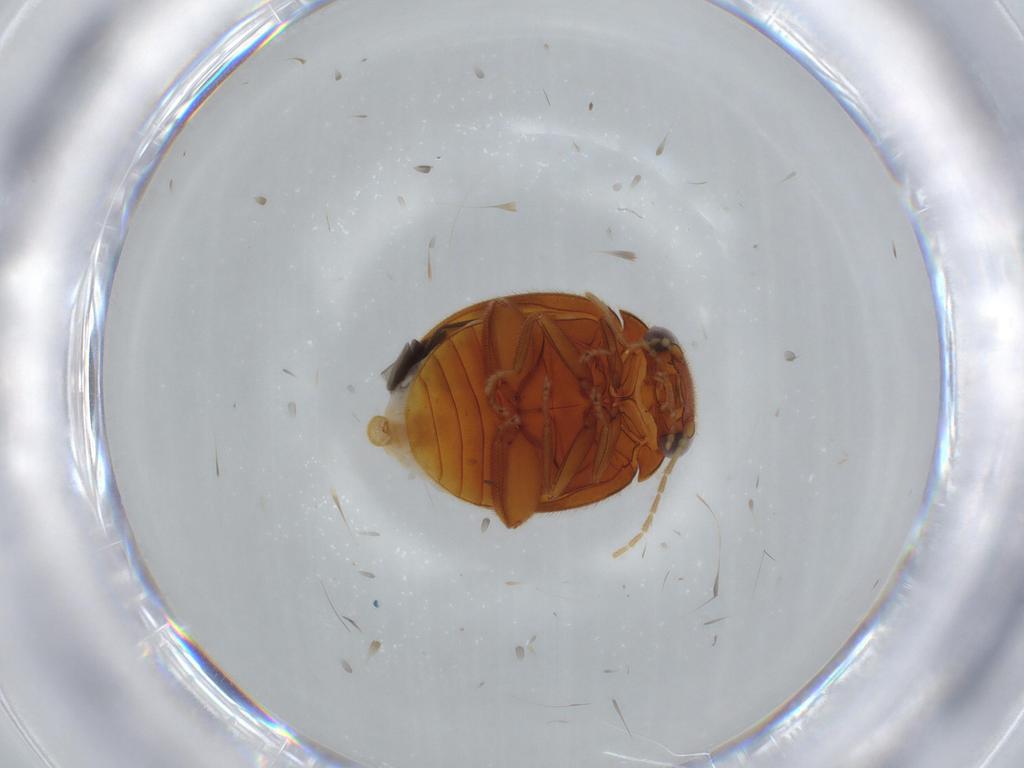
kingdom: Animalia
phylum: Arthropoda
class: Insecta
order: Coleoptera
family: Scirtidae
